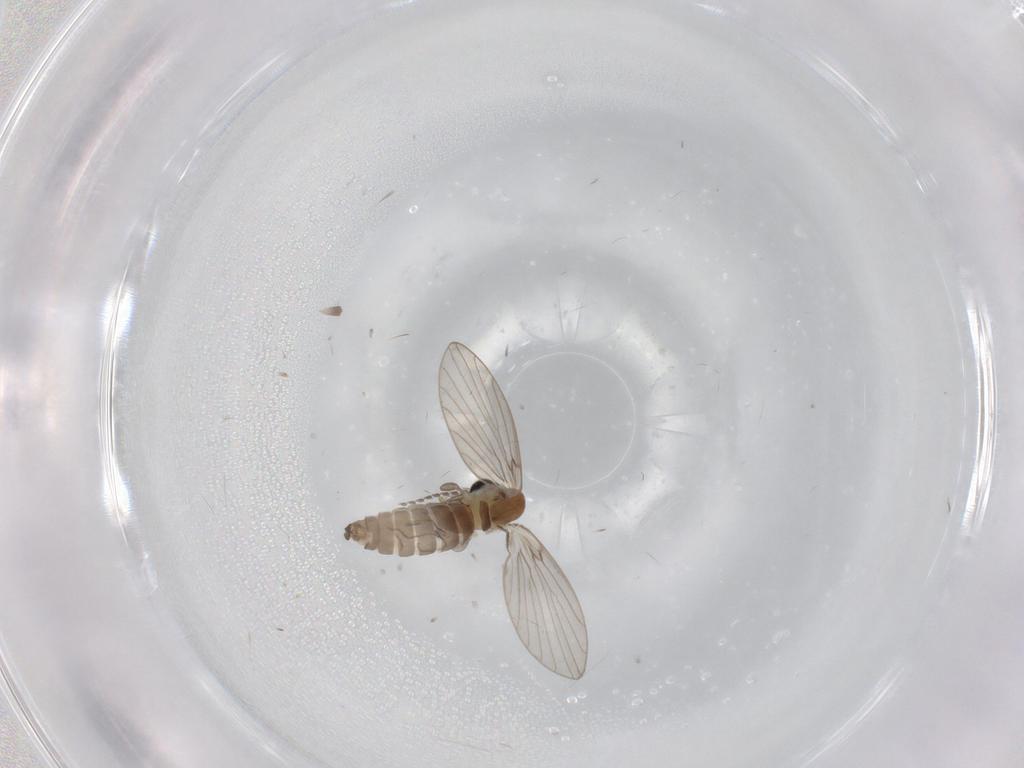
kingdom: Animalia
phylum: Arthropoda
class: Insecta
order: Diptera
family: Psychodidae
